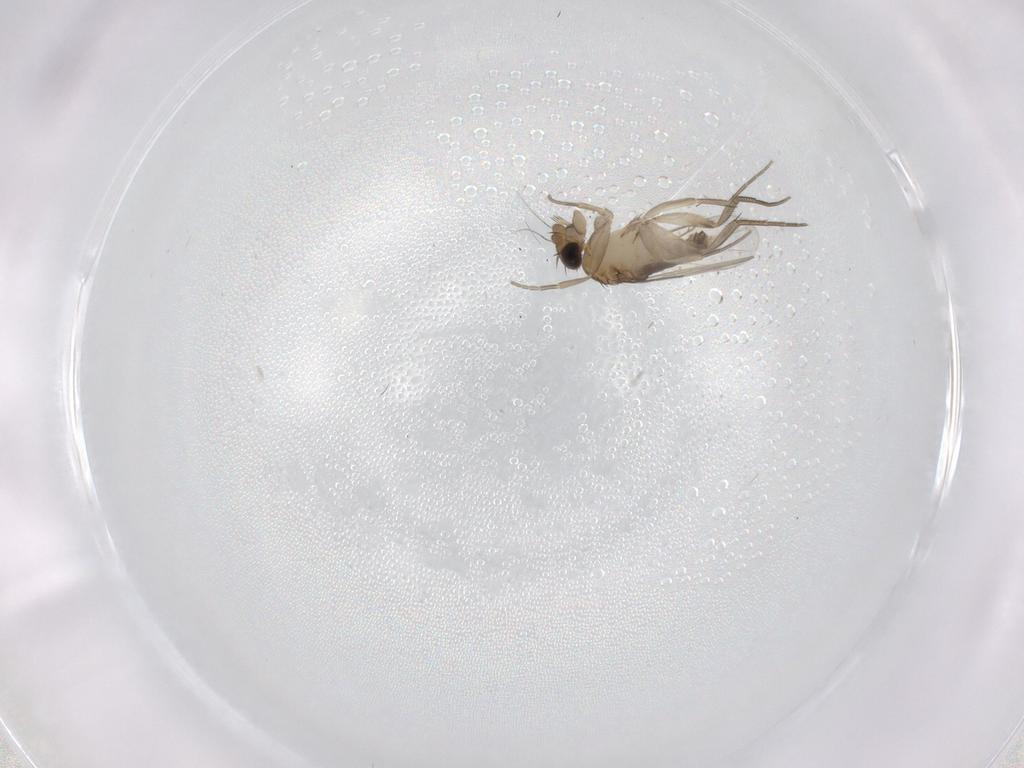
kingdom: Animalia
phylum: Arthropoda
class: Insecta
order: Diptera
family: Phoridae
